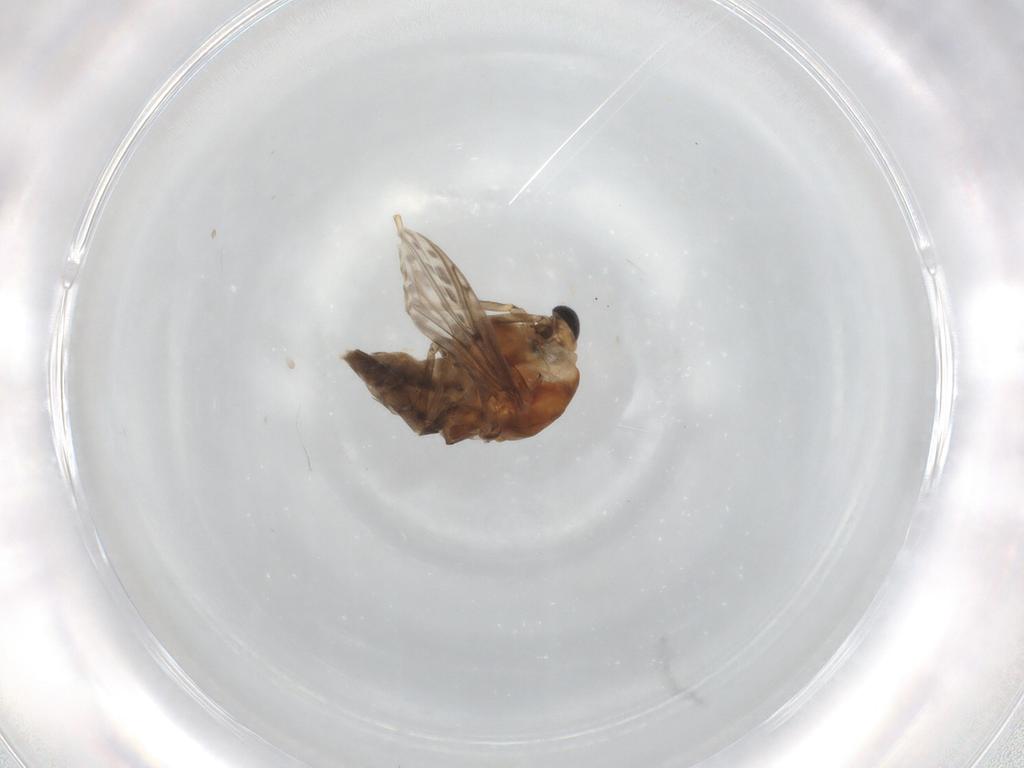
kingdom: Animalia
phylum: Arthropoda
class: Insecta
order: Diptera
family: Chironomidae
